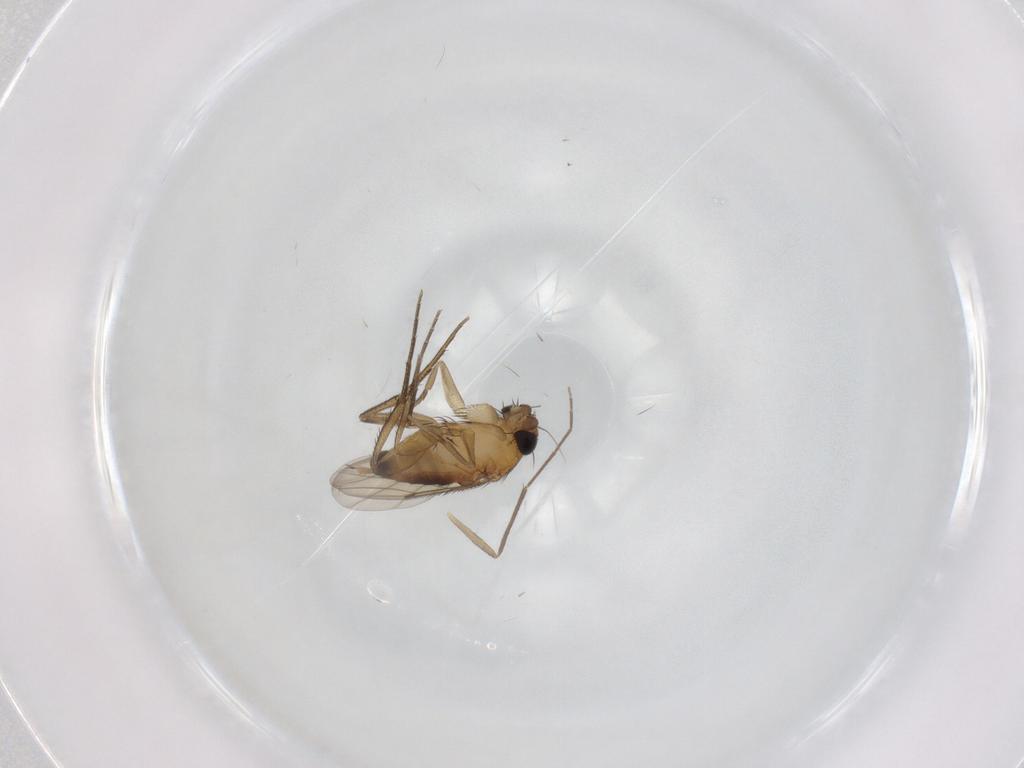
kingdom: Animalia
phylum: Arthropoda
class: Insecta
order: Diptera
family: Phoridae
